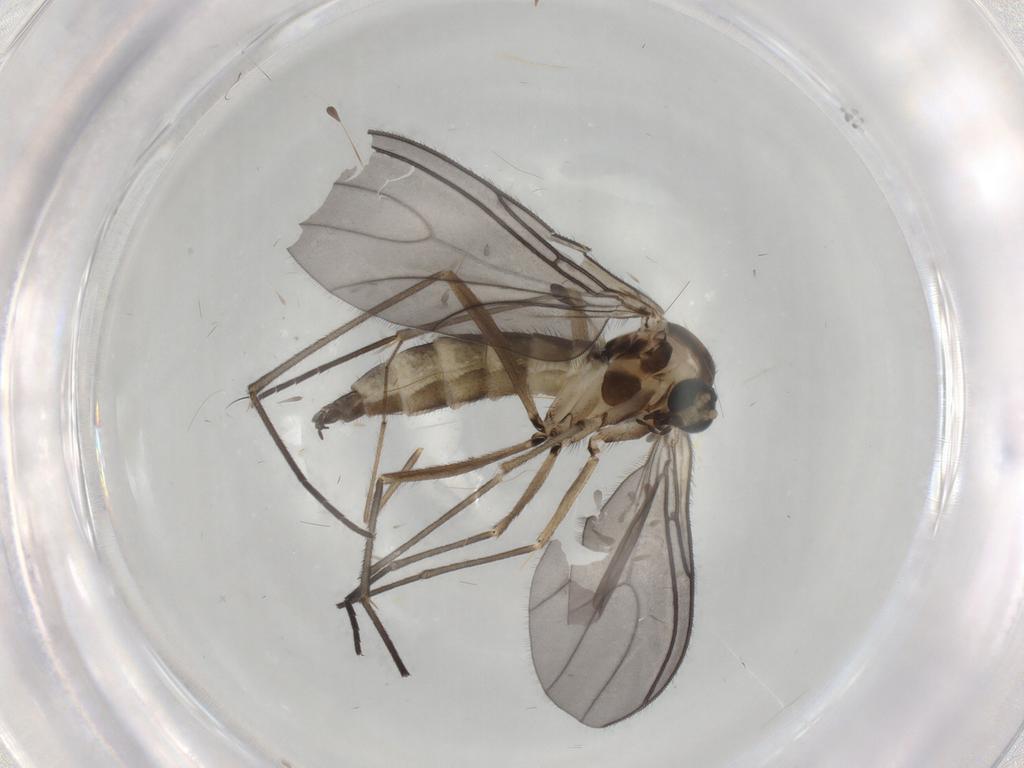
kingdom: Animalia
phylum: Arthropoda
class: Insecta
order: Diptera
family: Sciaridae
